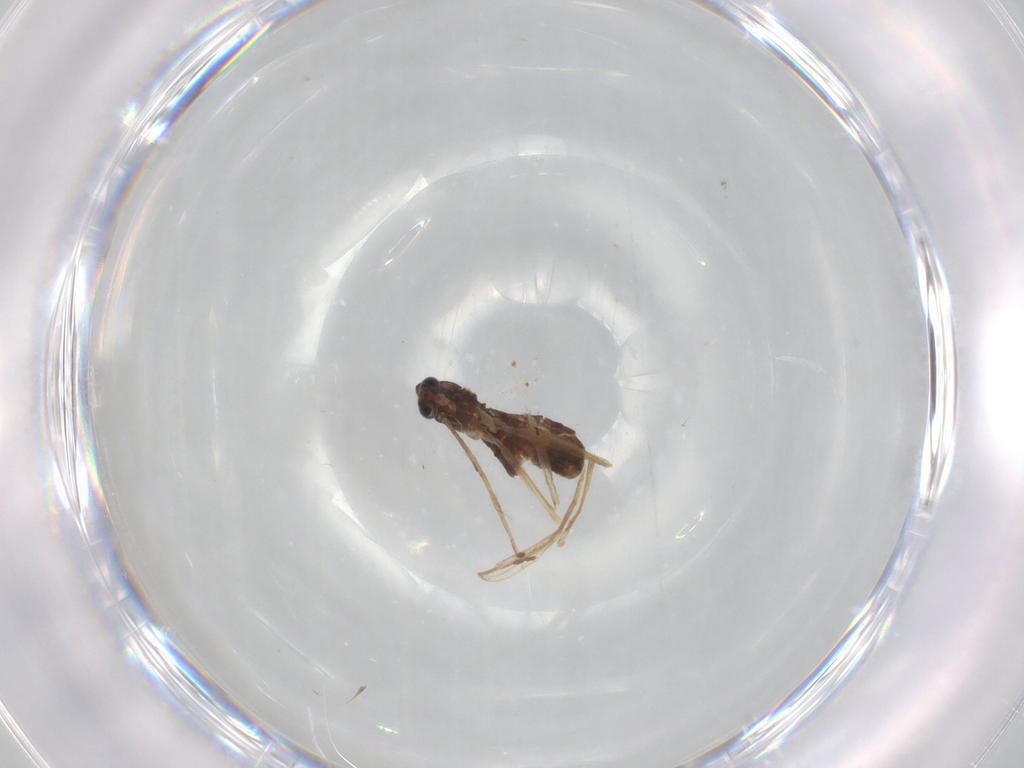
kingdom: Animalia
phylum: Arthropoda
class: Insecta
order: Diptera
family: Chironomidae
